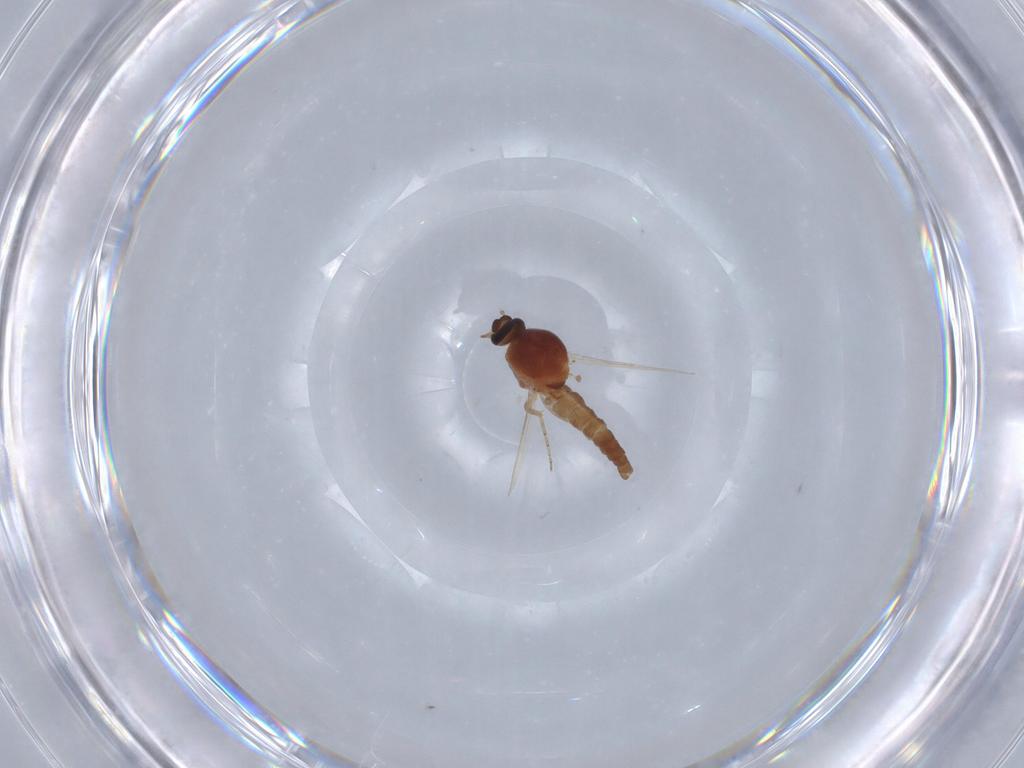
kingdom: Animalia
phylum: Arthropoda
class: Insecta
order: Diptera
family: Ceratopogonidae
